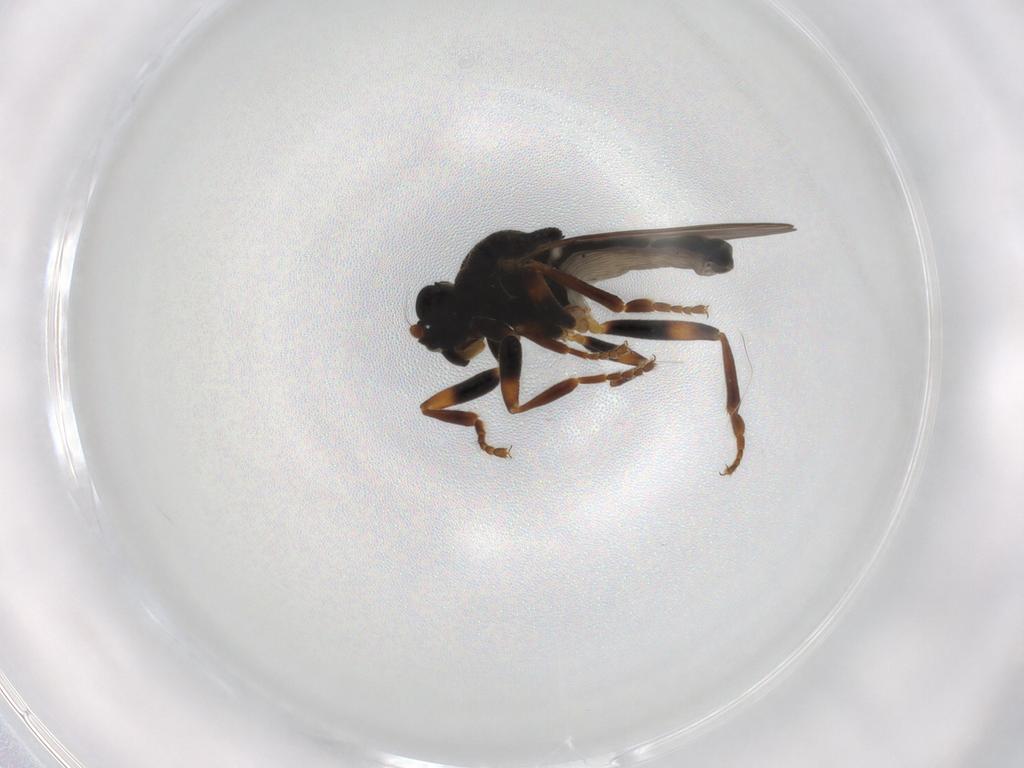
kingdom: Animalia
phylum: Arthropoda
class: Insecta
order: Diptera
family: Sphaeroceridae
